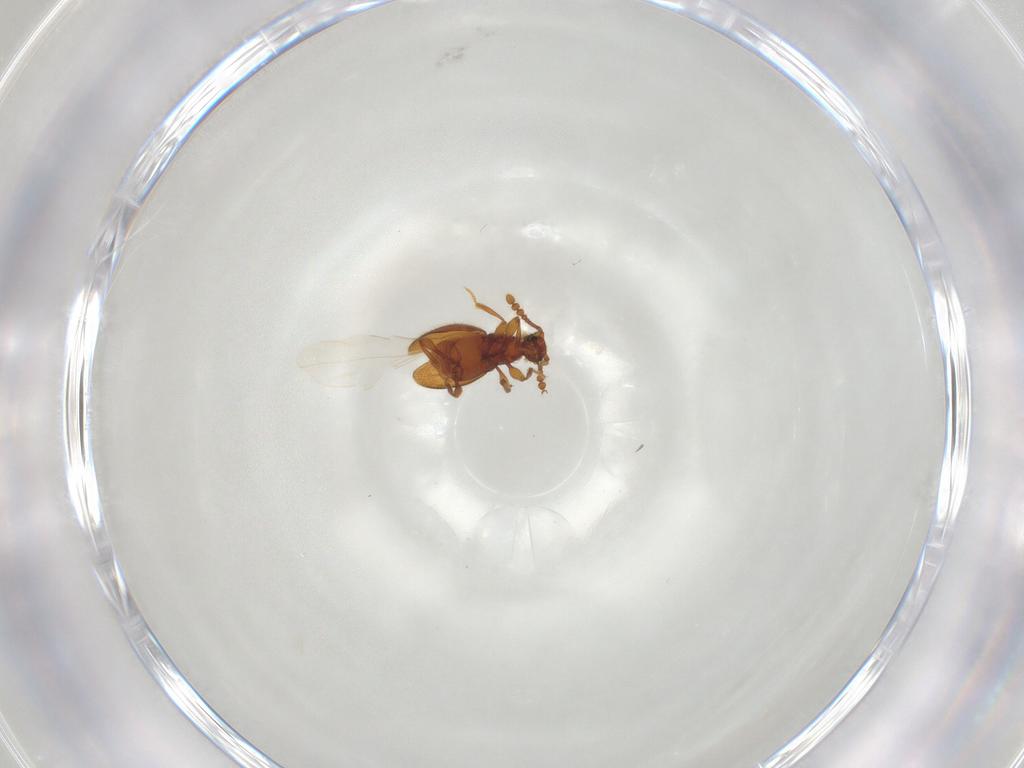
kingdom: Animalia
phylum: Arthropoda
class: Insecta
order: Coleoptera
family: Staphylinidae
